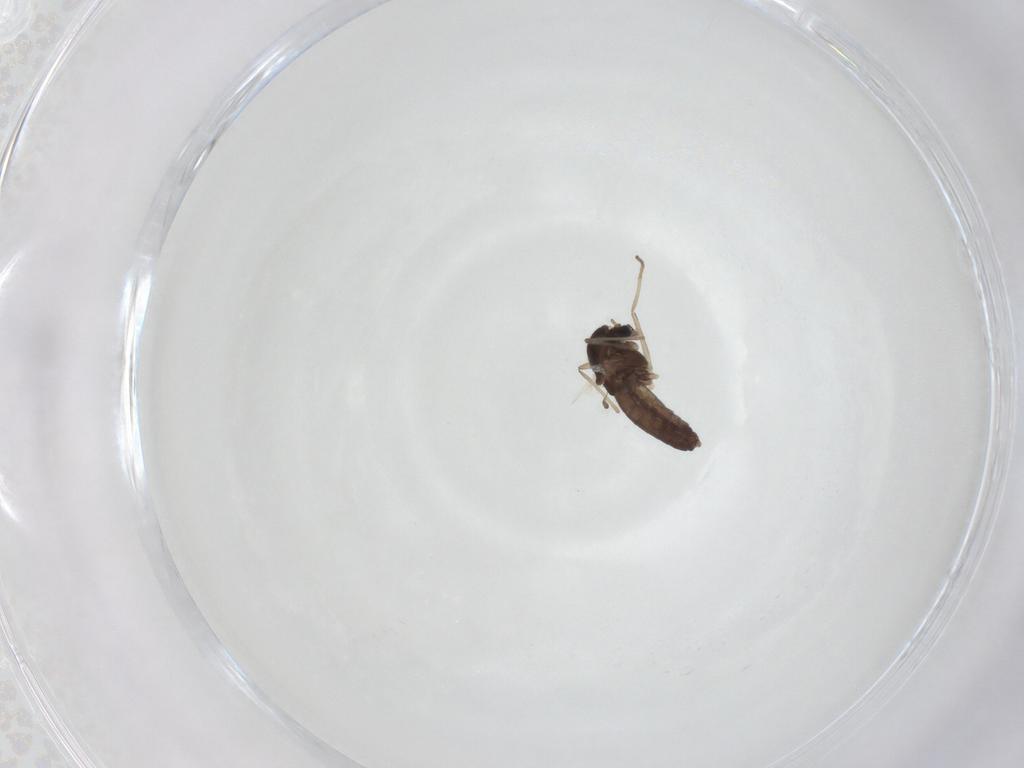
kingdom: Animalia
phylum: Arthropoda
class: Insecta
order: Diptera
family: Chironomidae
